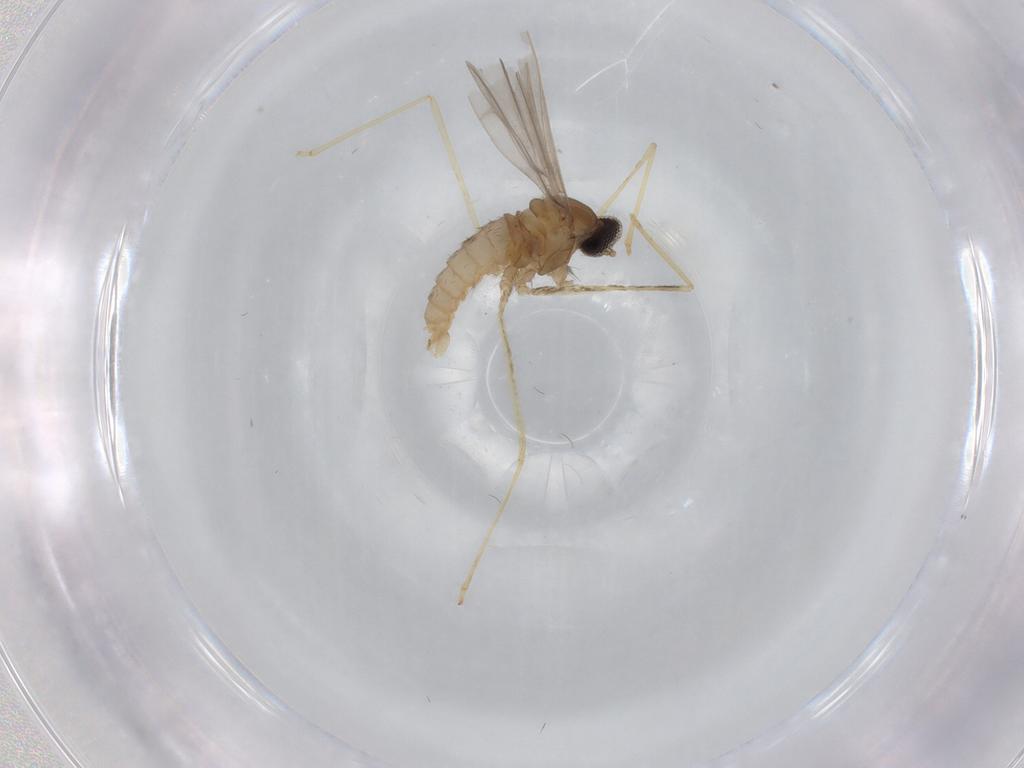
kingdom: Animalia
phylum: Arthropoda
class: Insecta
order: Diptera
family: Cecidomyiidae
